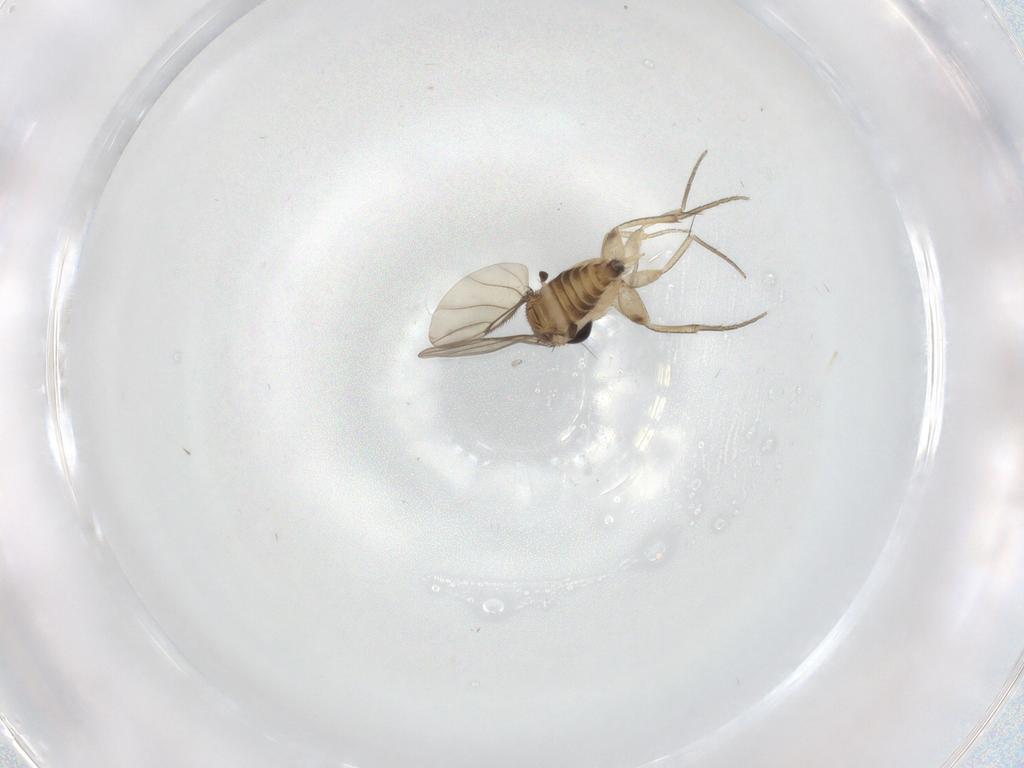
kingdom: Animalia
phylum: Arthropoda
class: Insecta
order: Diptera
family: Phoridae
